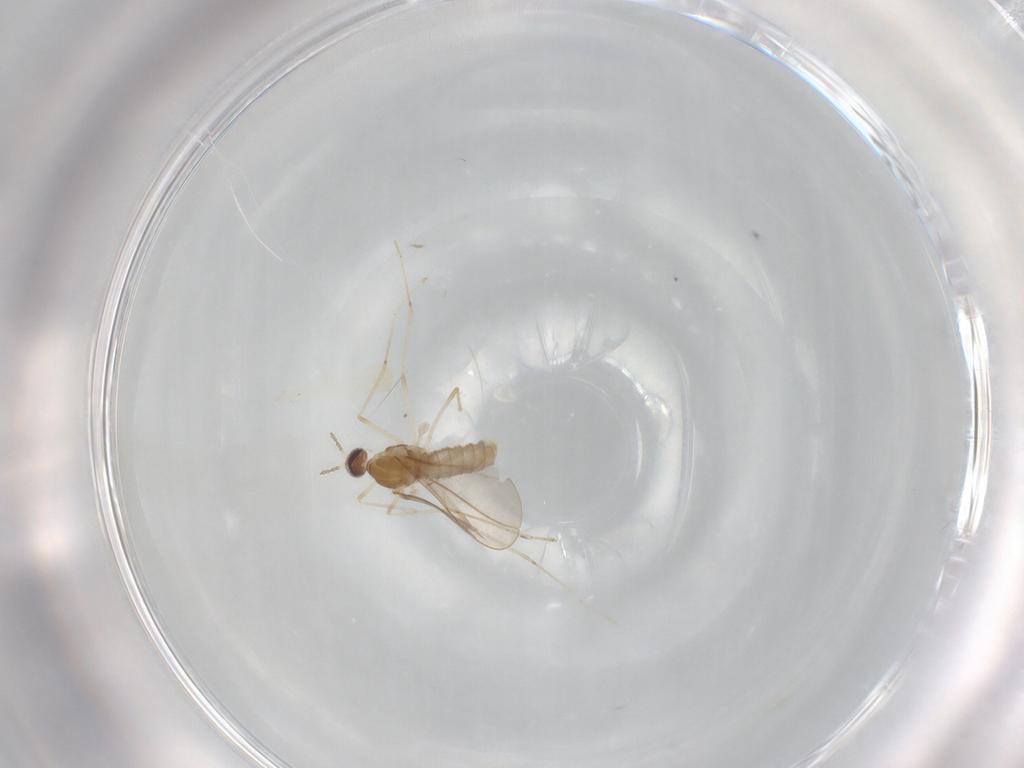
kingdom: Animalia
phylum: Arthropoda
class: Insecta
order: Diptera
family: Cecidomyiidae
